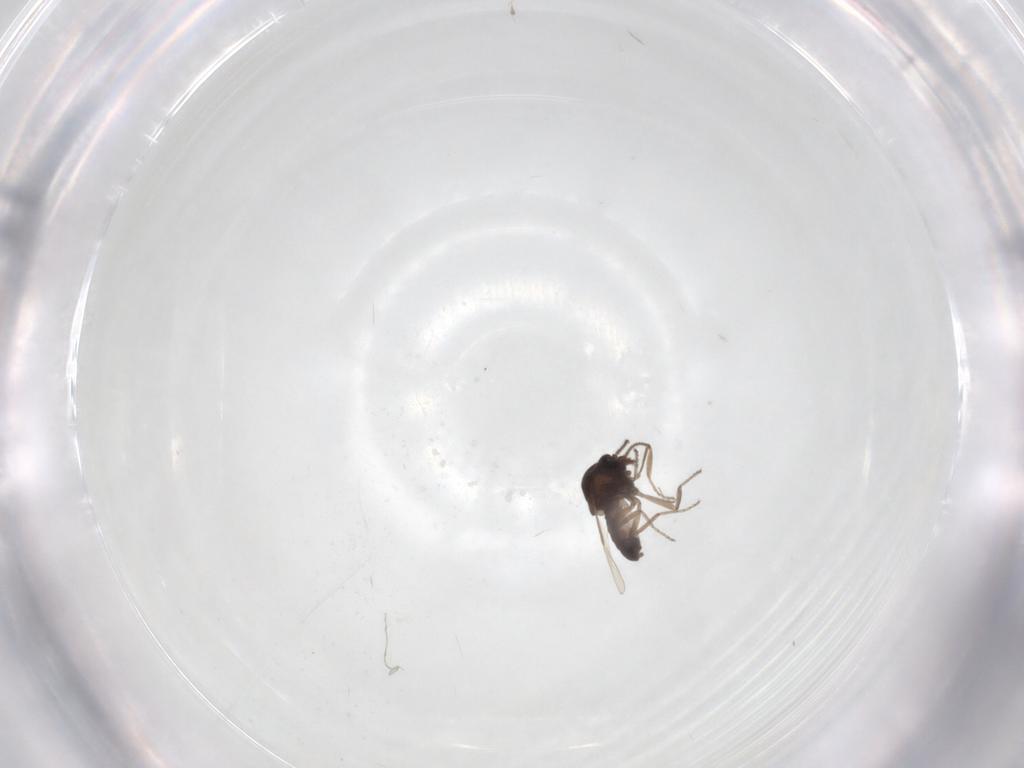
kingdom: Animalia
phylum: Arthropoda
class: Insecta
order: Diptera
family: Ceratopogonidae
